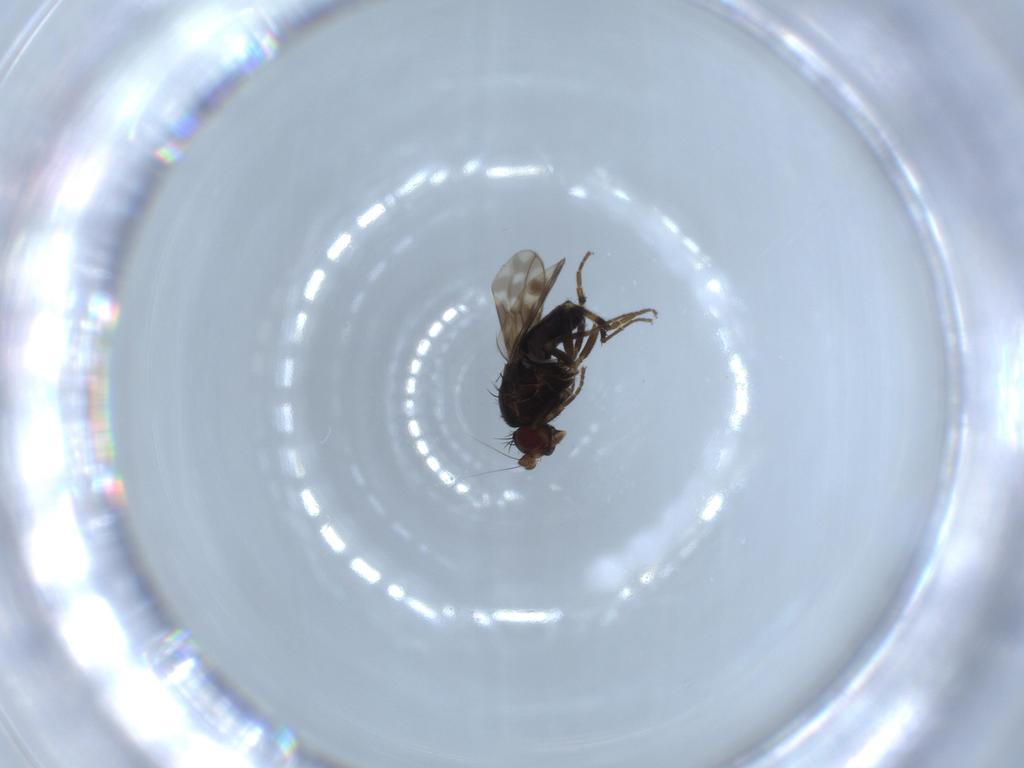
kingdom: Animalia
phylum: Arthropoda
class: Insecta
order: Diptera
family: Sphaeroceridae
